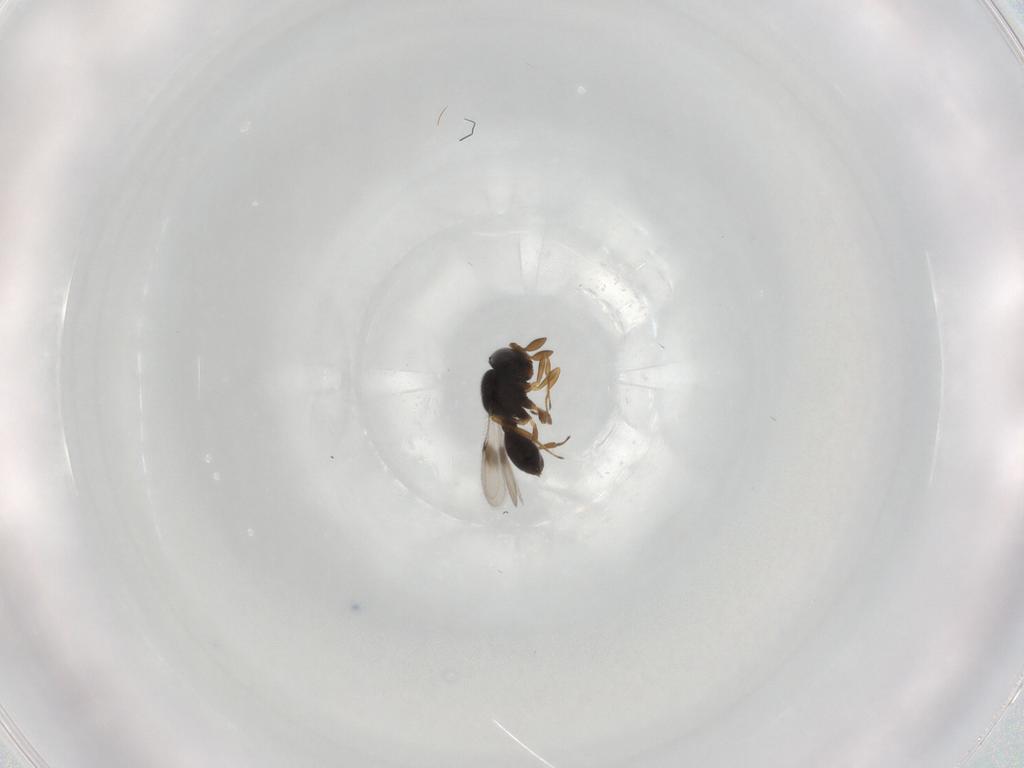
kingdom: Animalia
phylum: Arthropoda
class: Insecta
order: Hymenoptera
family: Scelionidae
